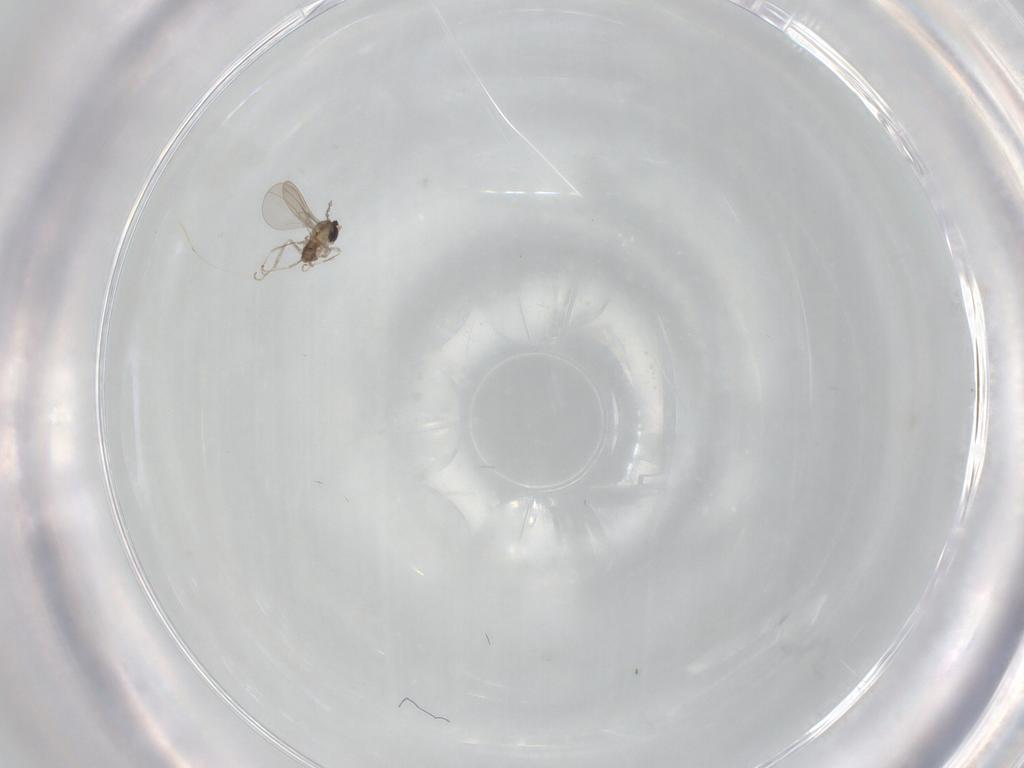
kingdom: Animalia
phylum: Arthropoda
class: Insecta
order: Diptera
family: Cecidomyiidae
